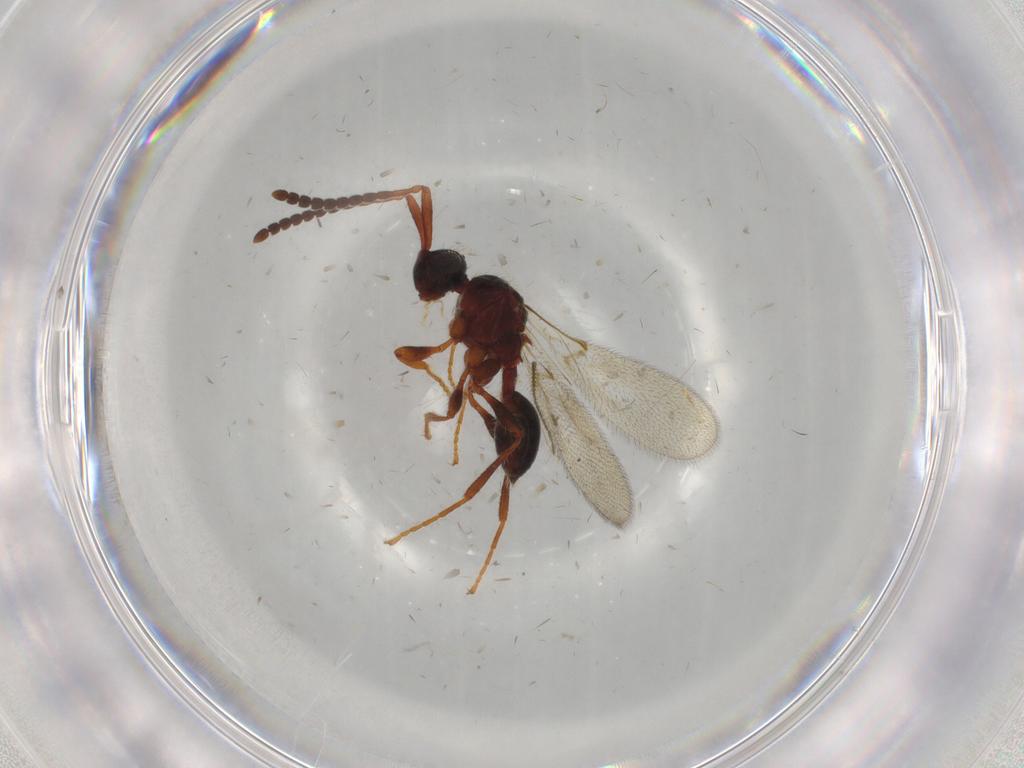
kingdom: Animalia
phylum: Arthropoda
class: Insecta
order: Hymenoptera
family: Diapriidae
